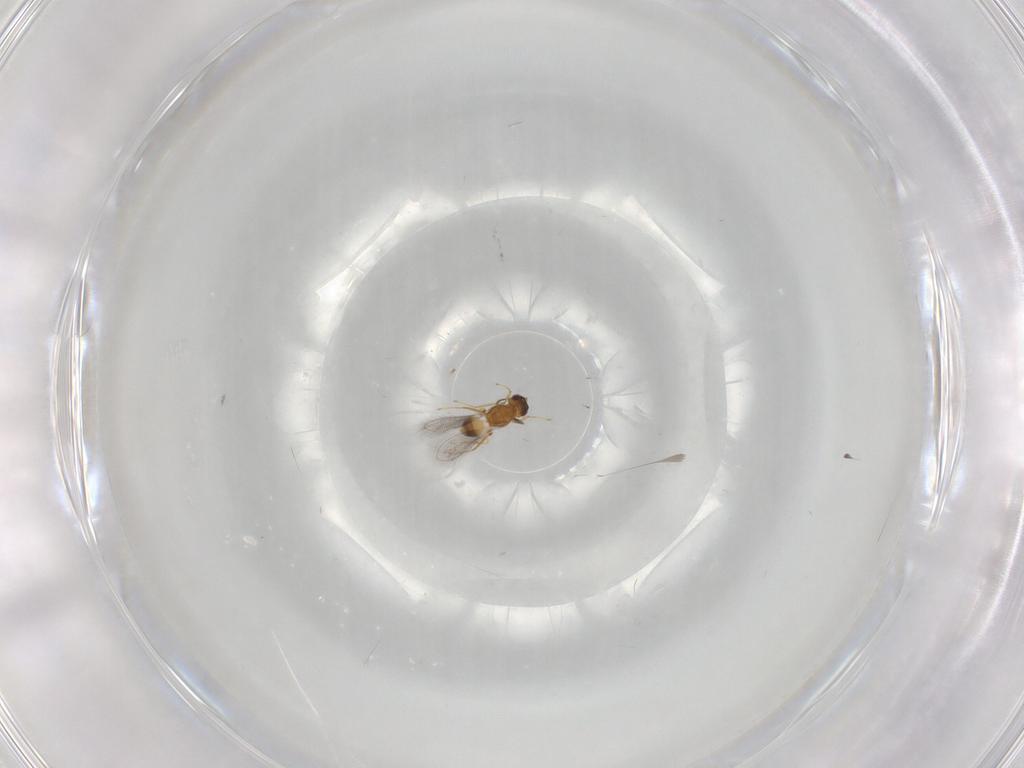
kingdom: Animalia
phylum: Arthropoda
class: Insecta
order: Hymenoptera
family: Mymaridae
